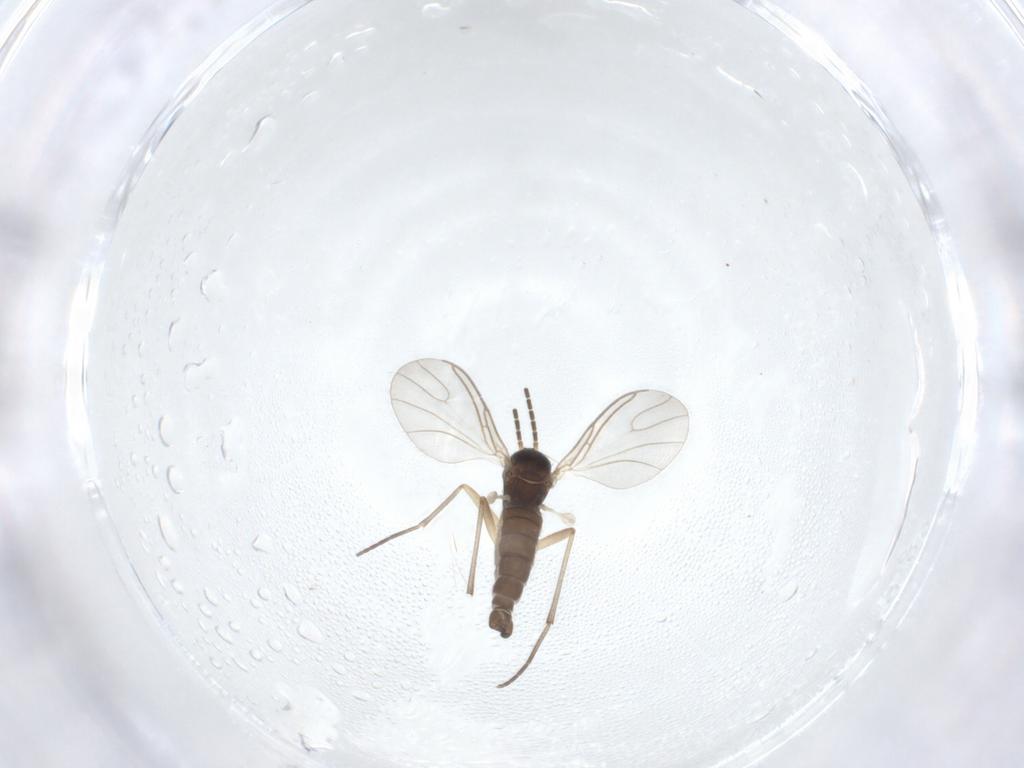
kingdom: Animalia
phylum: Arthropoda
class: Insecta
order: Diptera
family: Sciaridae
